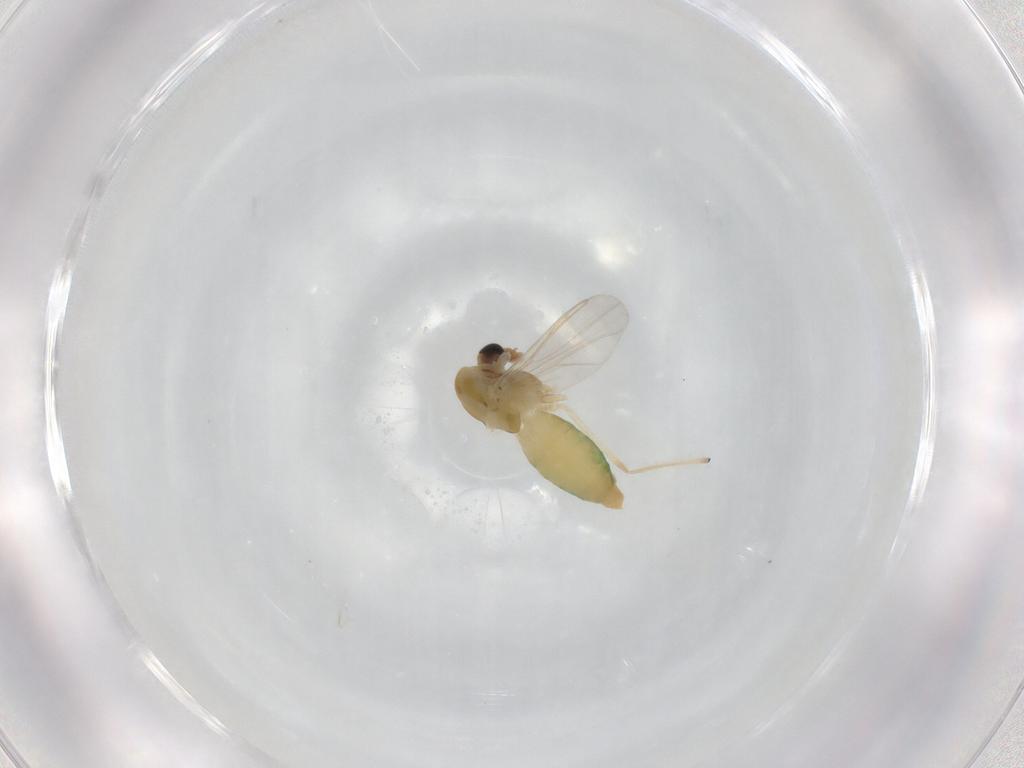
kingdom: Animalia
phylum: Arthropoda
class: Insecta
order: Diptera
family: Chironomidae
